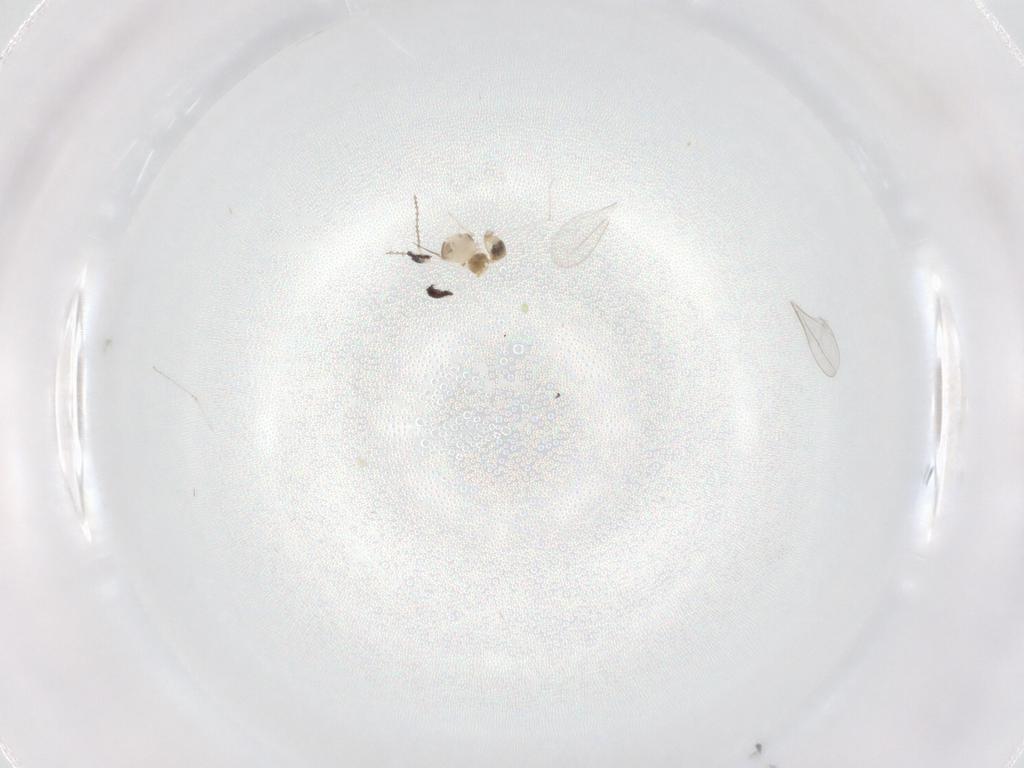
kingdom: Animalia
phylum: Arthropoda
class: Insecta
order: Diptera
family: Cecidomyiidae
